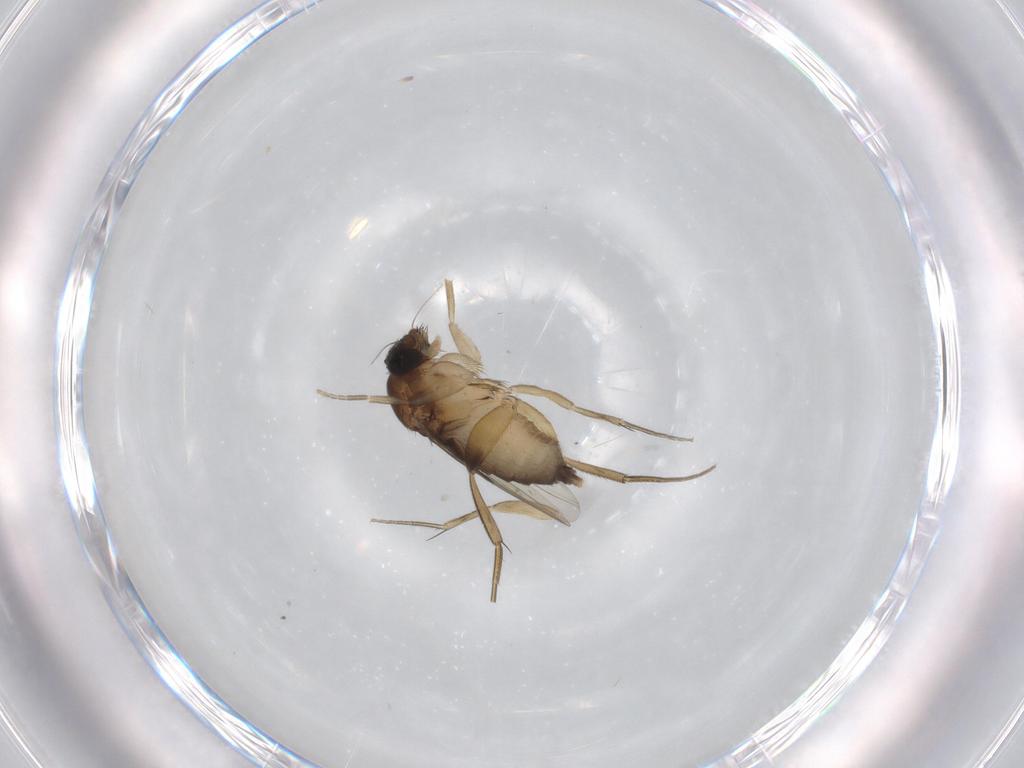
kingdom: Animalia
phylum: Arthropoda
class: Insecta
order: Diptera
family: Phoridae
